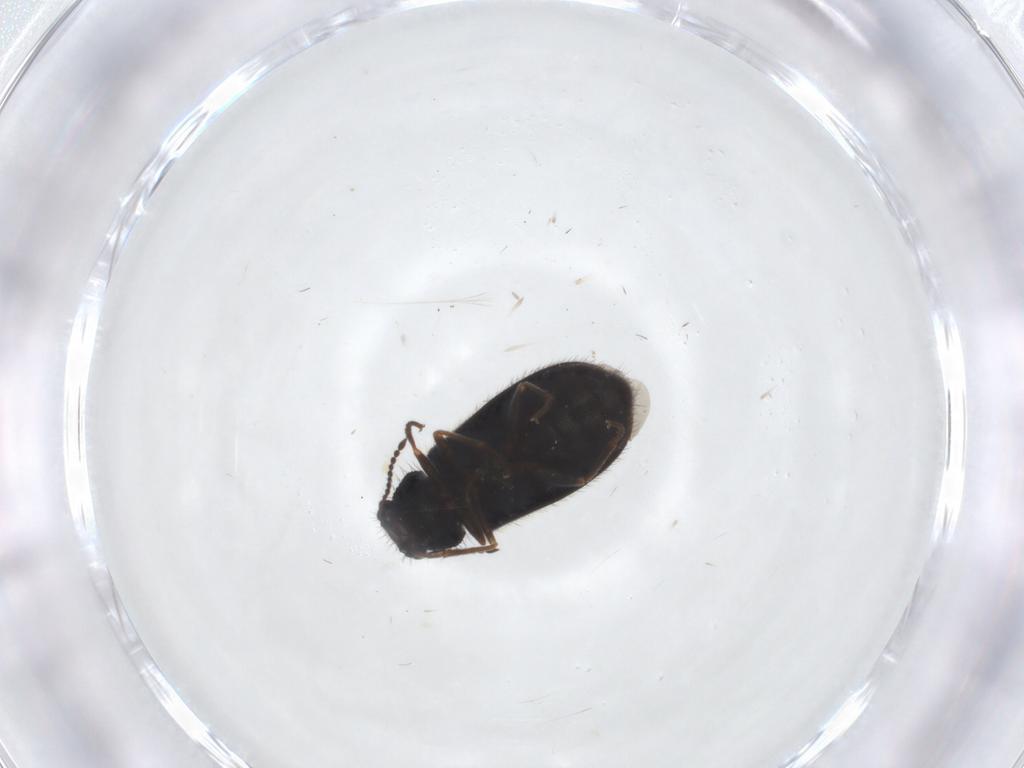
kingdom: Animalia
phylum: Arthropoda
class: Insecta
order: Coleoptera
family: Melyridae
